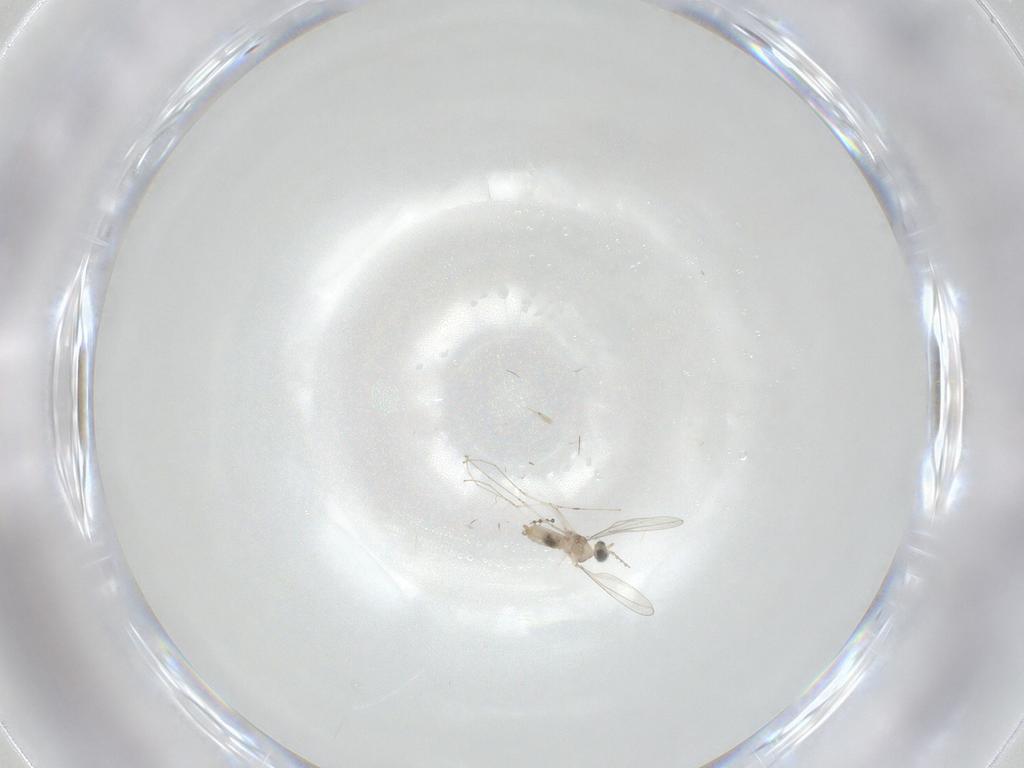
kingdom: Animalia
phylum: Arthropoda
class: Insecta
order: Diptera
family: Cecidomyiidae
